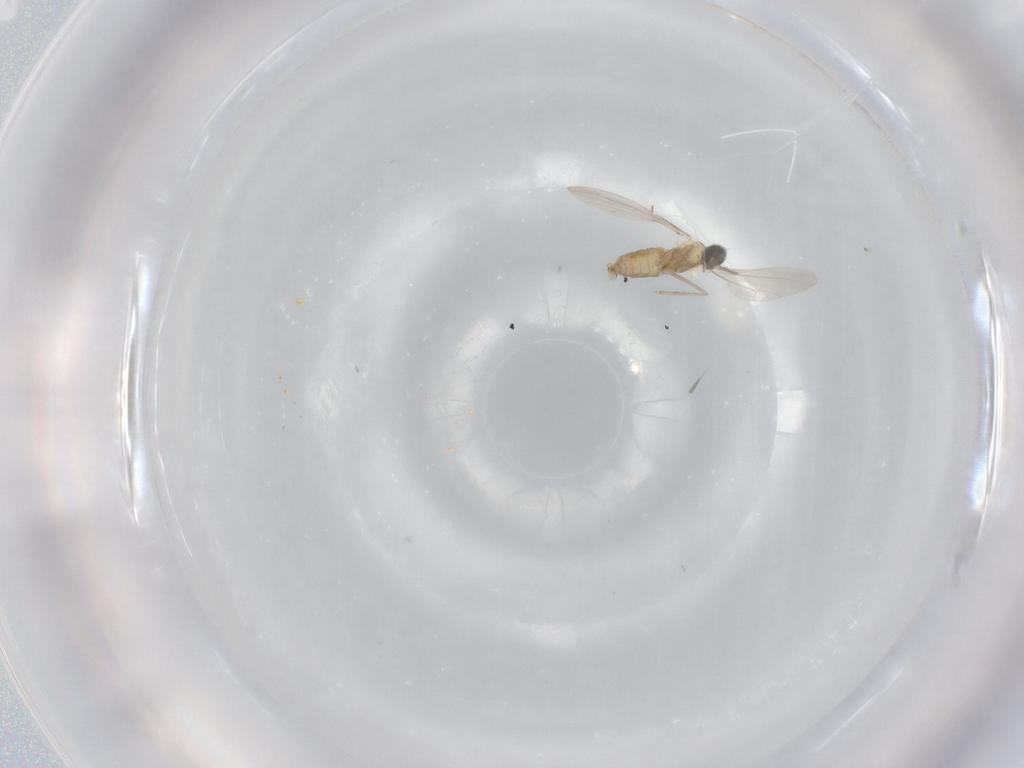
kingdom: Animalia
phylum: Arthropoda
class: Insecta
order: Diptera
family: Cecidomyiidae
